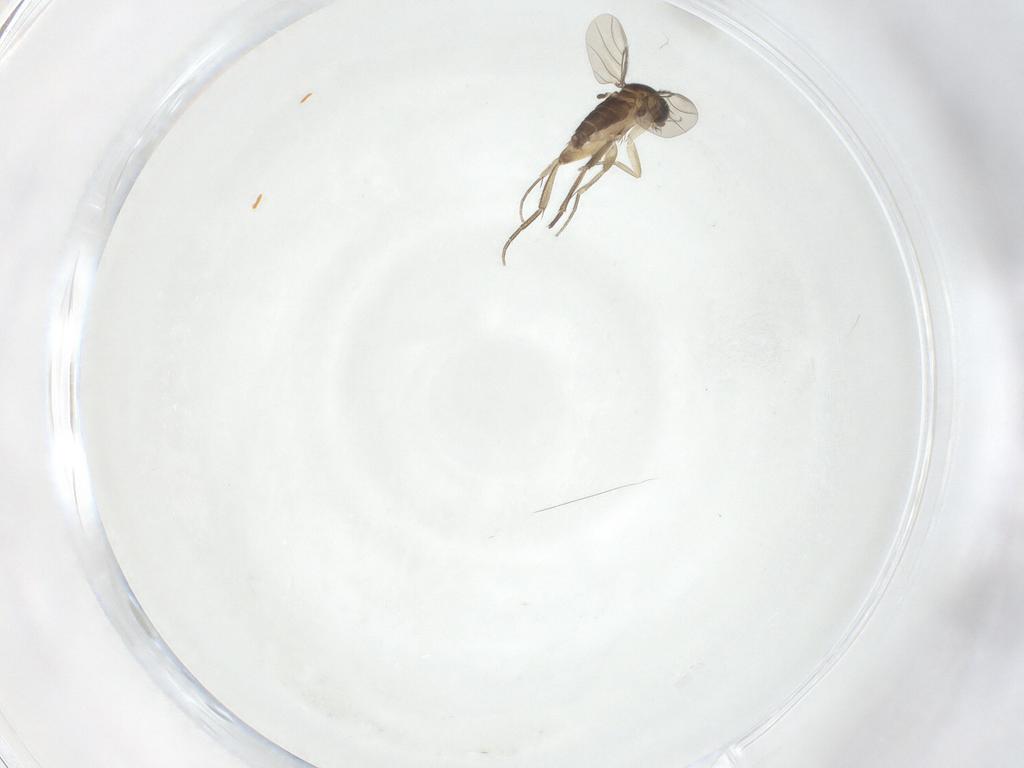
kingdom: Animalia
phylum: Arthropoda
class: Insecta
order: Diptera
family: Phoridae
